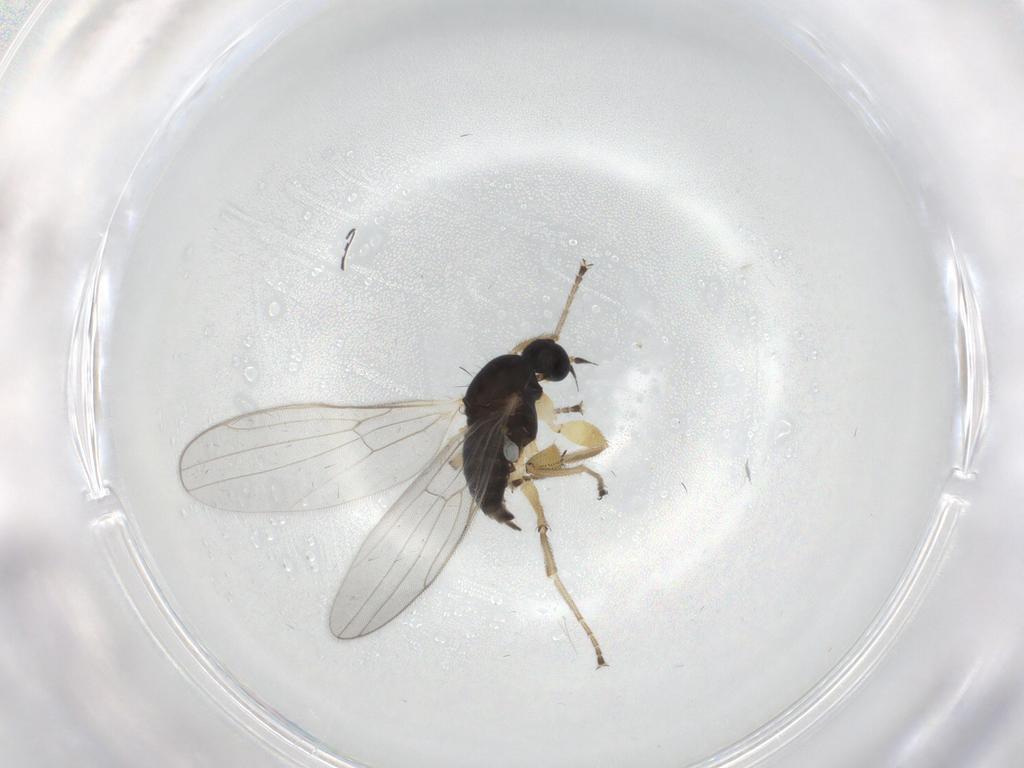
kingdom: Animalia
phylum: Arthropoda
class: Insecta
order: Diptera
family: Hybotidae
